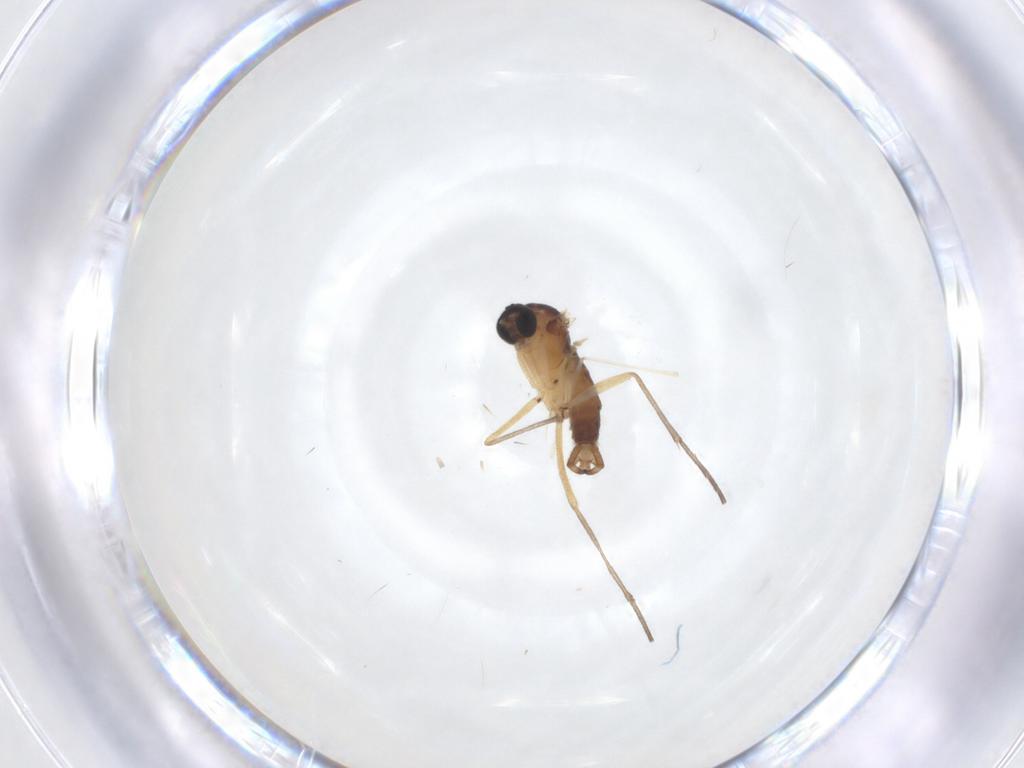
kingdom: Animalia
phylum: Arthropoda
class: Insecta
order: Diptera
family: Sciaridae
